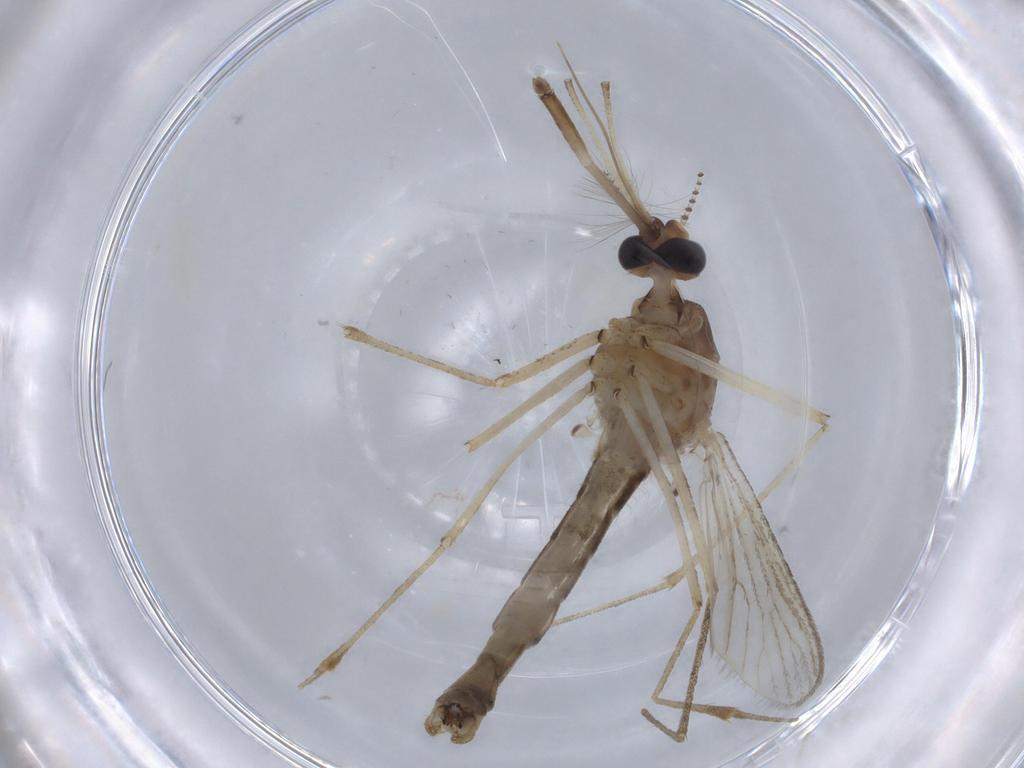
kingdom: Animalia
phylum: Arthropoda
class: Insecta
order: Diptera
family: Culicidae
